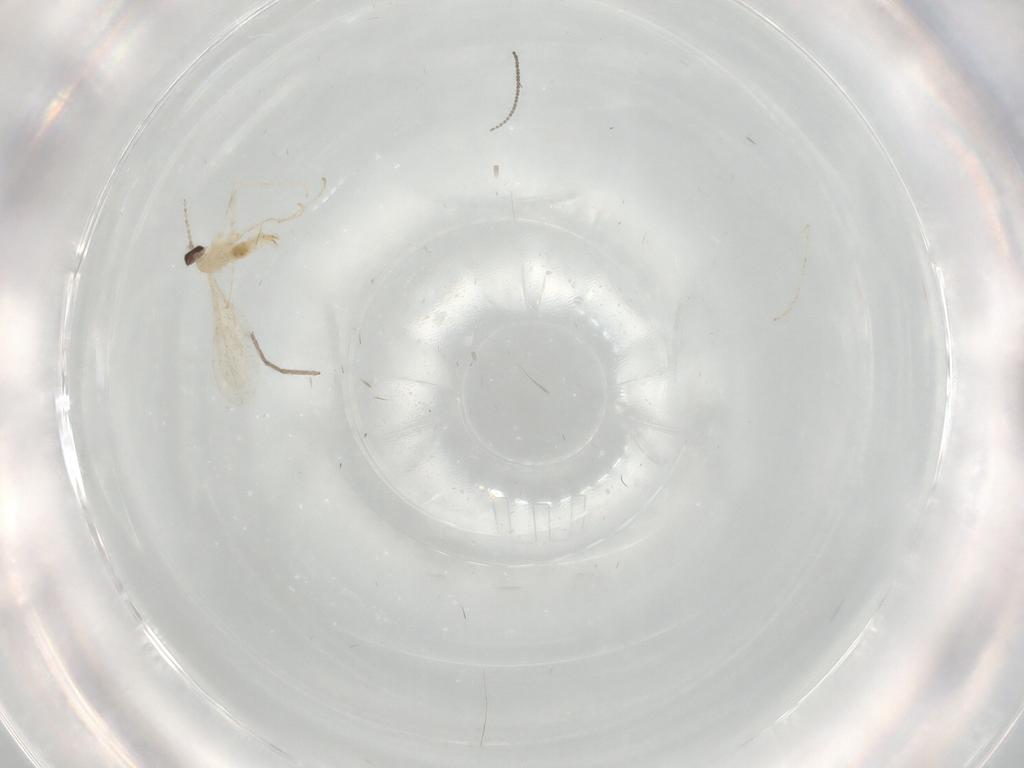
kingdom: Animalia
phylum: Arthropoda
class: Insecta
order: Diptera
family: Cecidomyiidae
